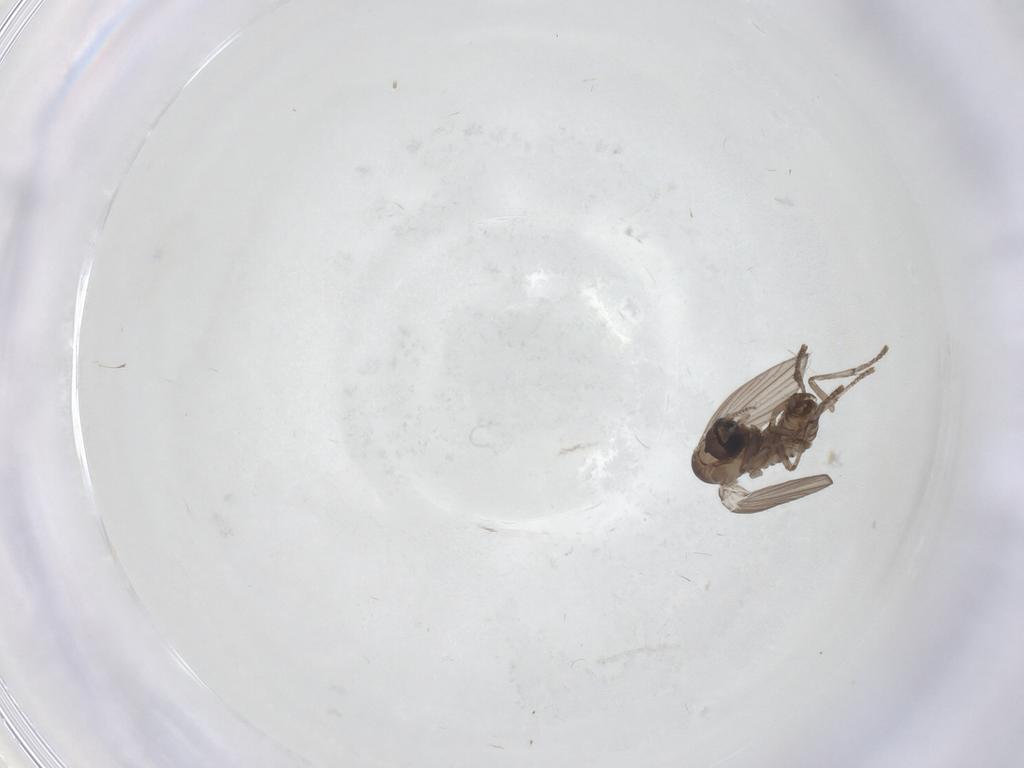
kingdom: Animalia
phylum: Arthropoda
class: Insecta
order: Diptera
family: Psychodidae
